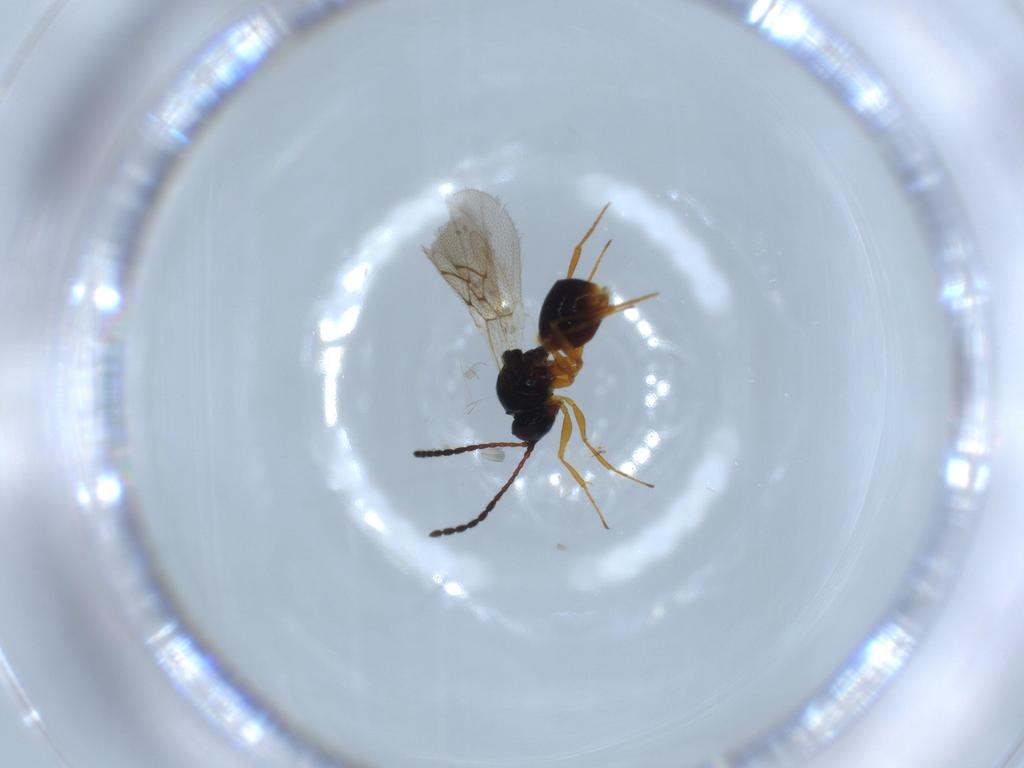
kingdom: Animalia
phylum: Arthropoda
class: Insecta
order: Hymenoptera
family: Figitidae
